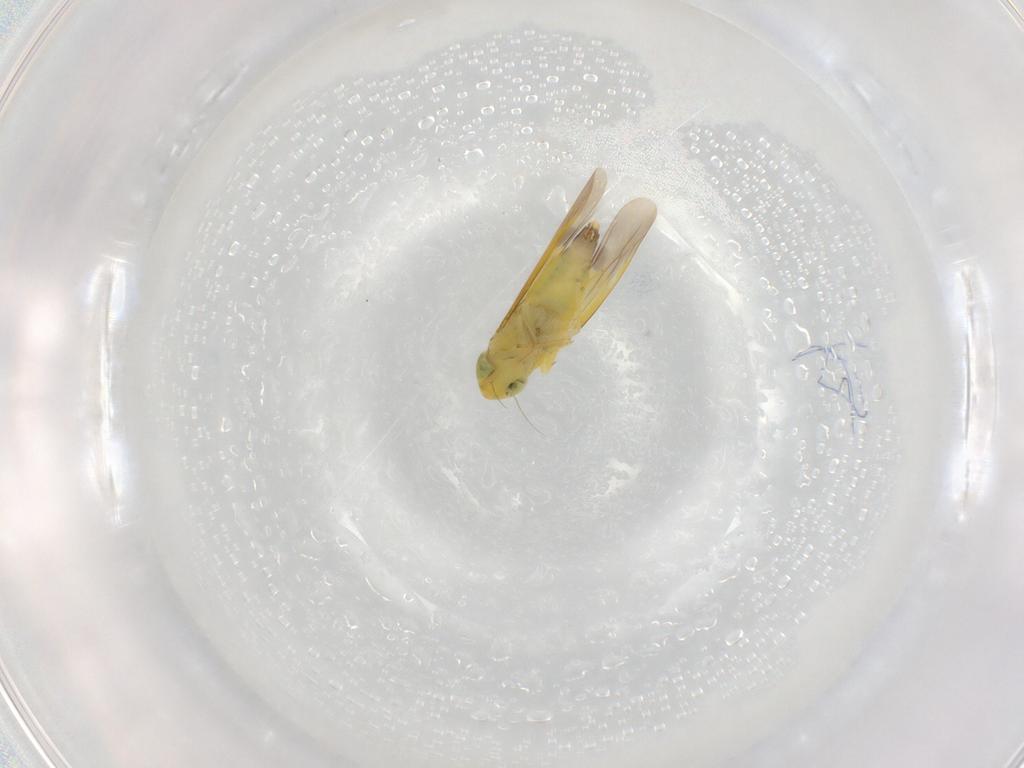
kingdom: Animalia
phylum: Arthropoda
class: Insecta
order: Hemiptera
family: Cicadellidae
